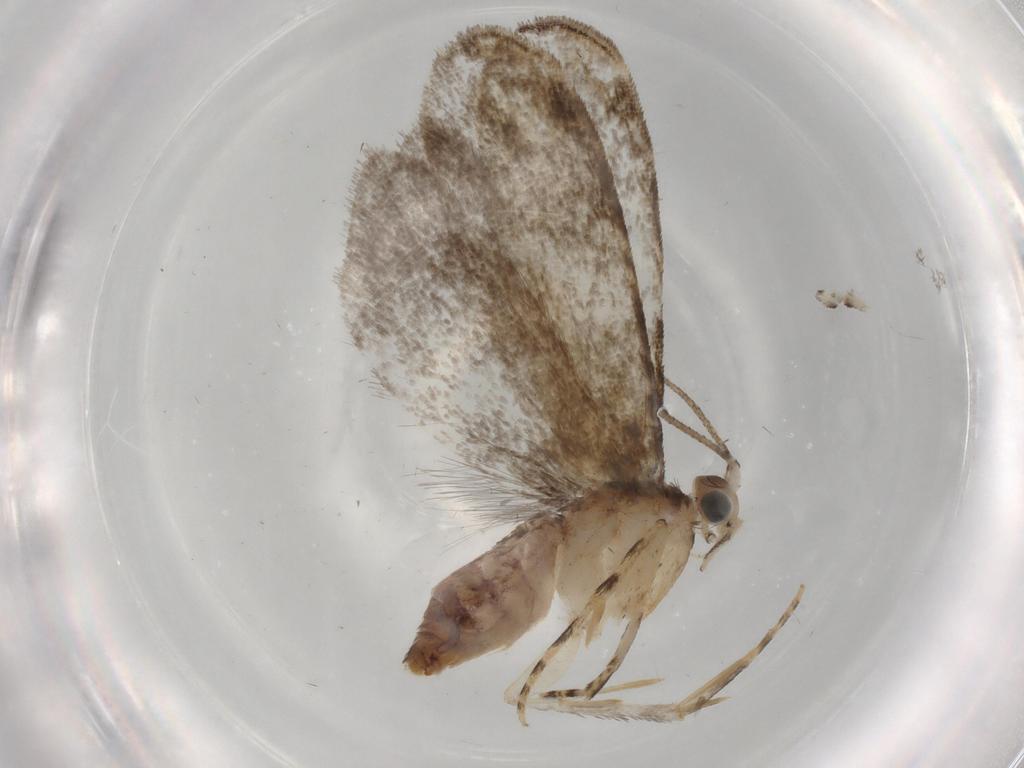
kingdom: Animalia
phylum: Arthropoda
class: Insecta
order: Lepidoptera
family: Tineidae
